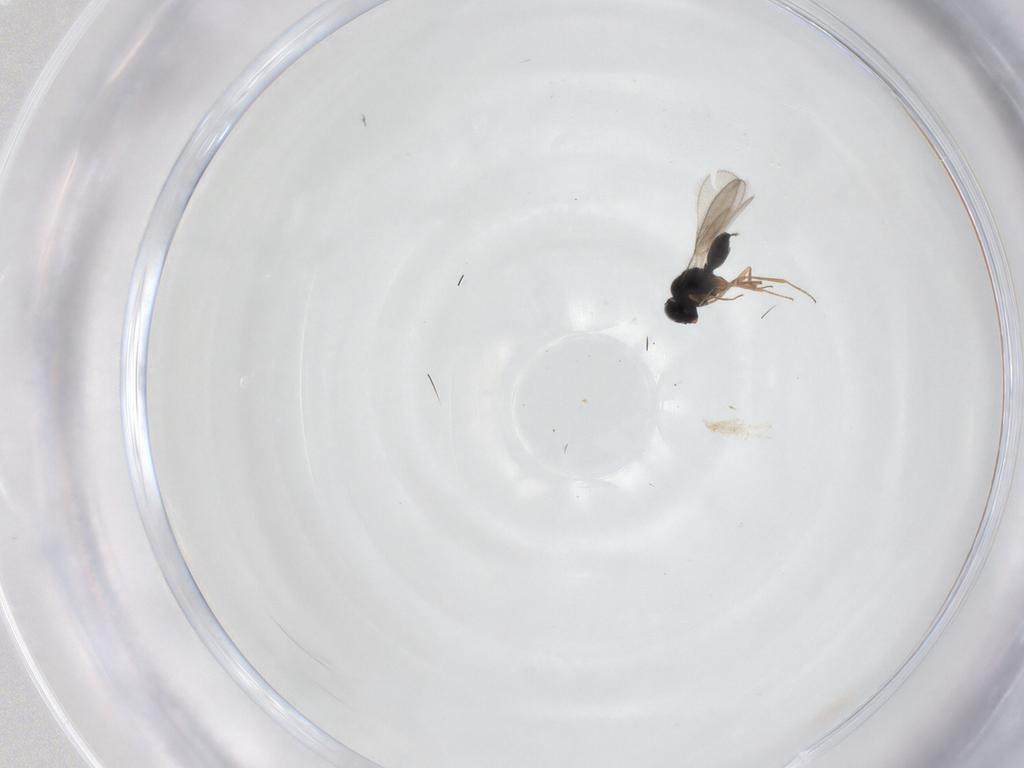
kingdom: Animalia
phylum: Arthropoda
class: Insecta
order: Hymenoptera
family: Scelionidae
